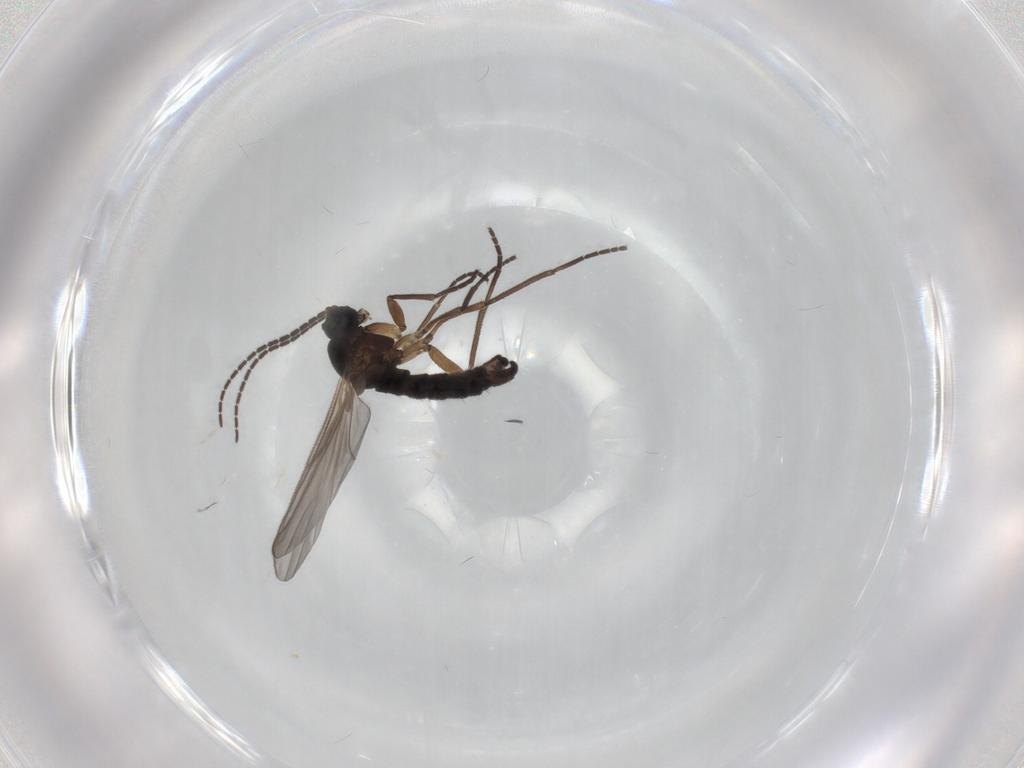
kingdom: Animalia
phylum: Arthropoda
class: Insecta
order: Diptera
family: Sciaridae
